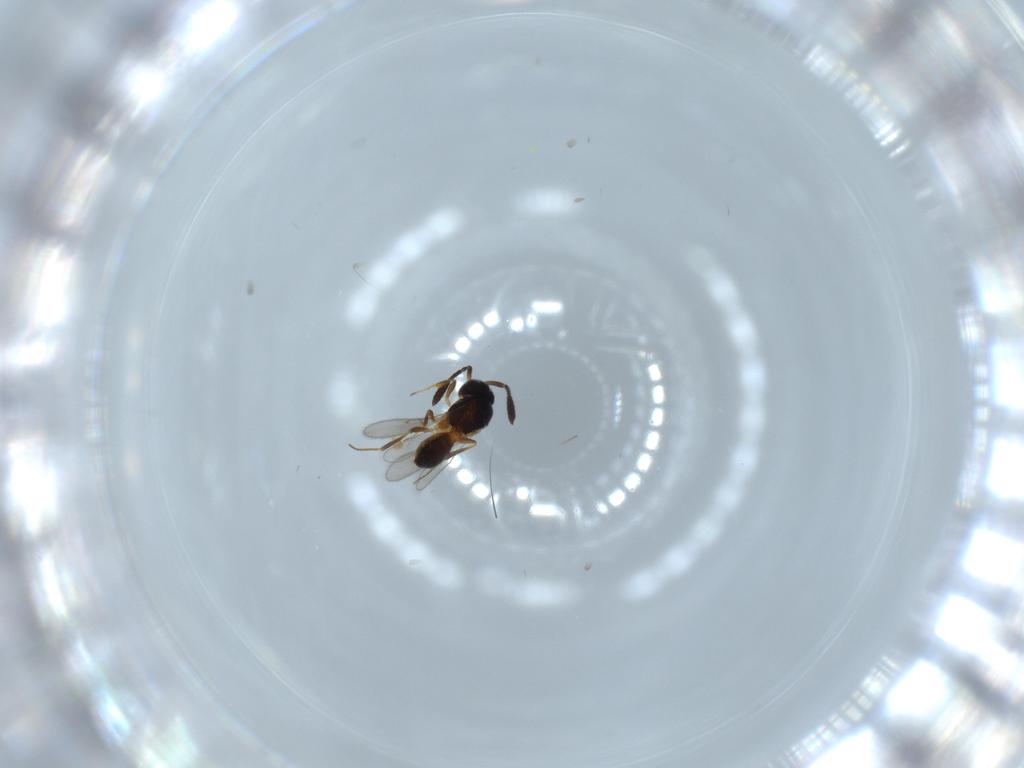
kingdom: Animalia
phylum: Arthropoda
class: Insecta
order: Hymenoptera
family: Scelionidae
